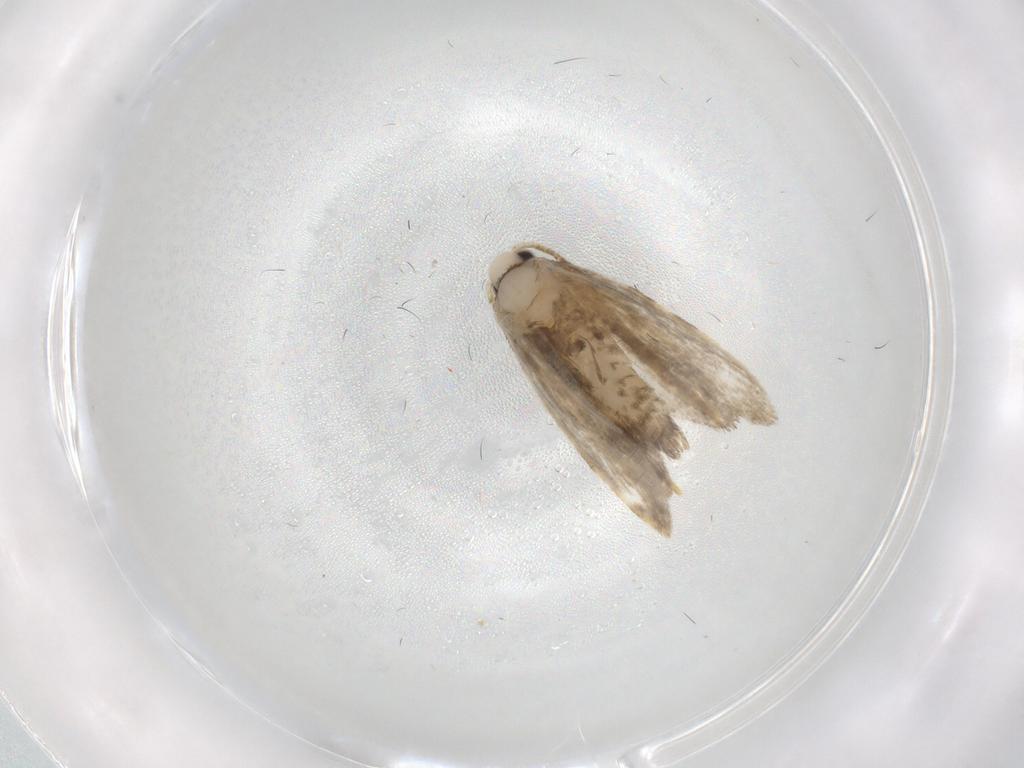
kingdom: Animalia
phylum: Arthropoda
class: Insecta
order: Lepidoptera
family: Psychidae
